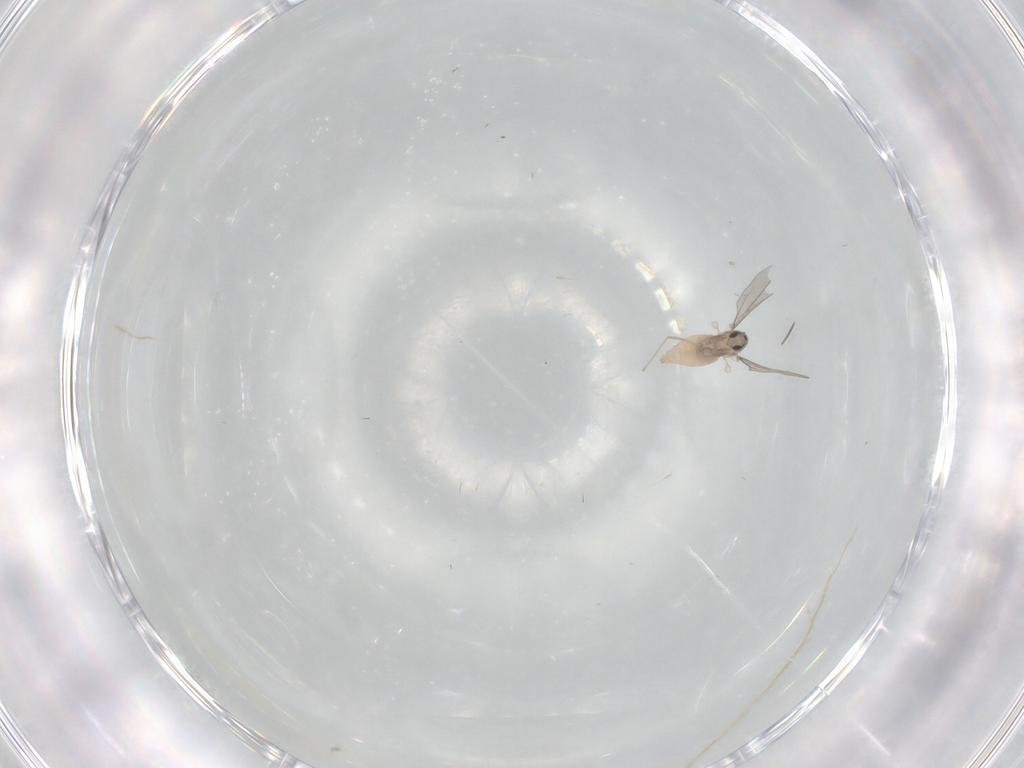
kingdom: Animalia
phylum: Arthropoda
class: Insecta
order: Diptera
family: Cecidomyiidae
